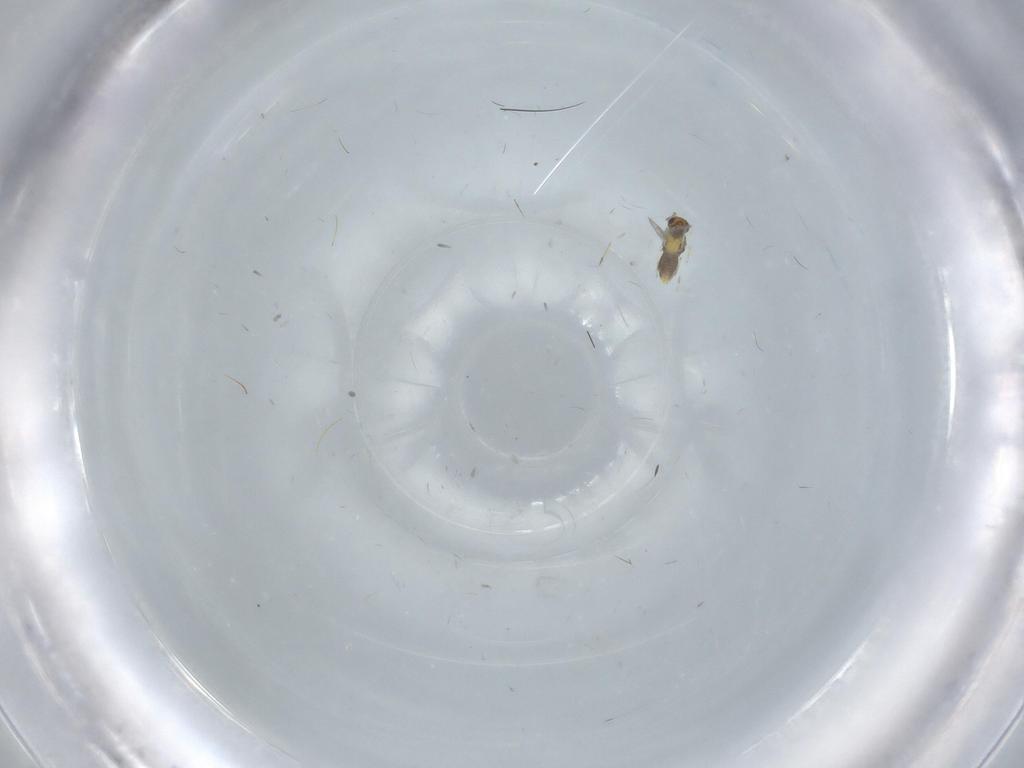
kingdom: Animalia
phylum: Arthropoda
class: Insecta
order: Hymenoptera
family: Aphelinidae
